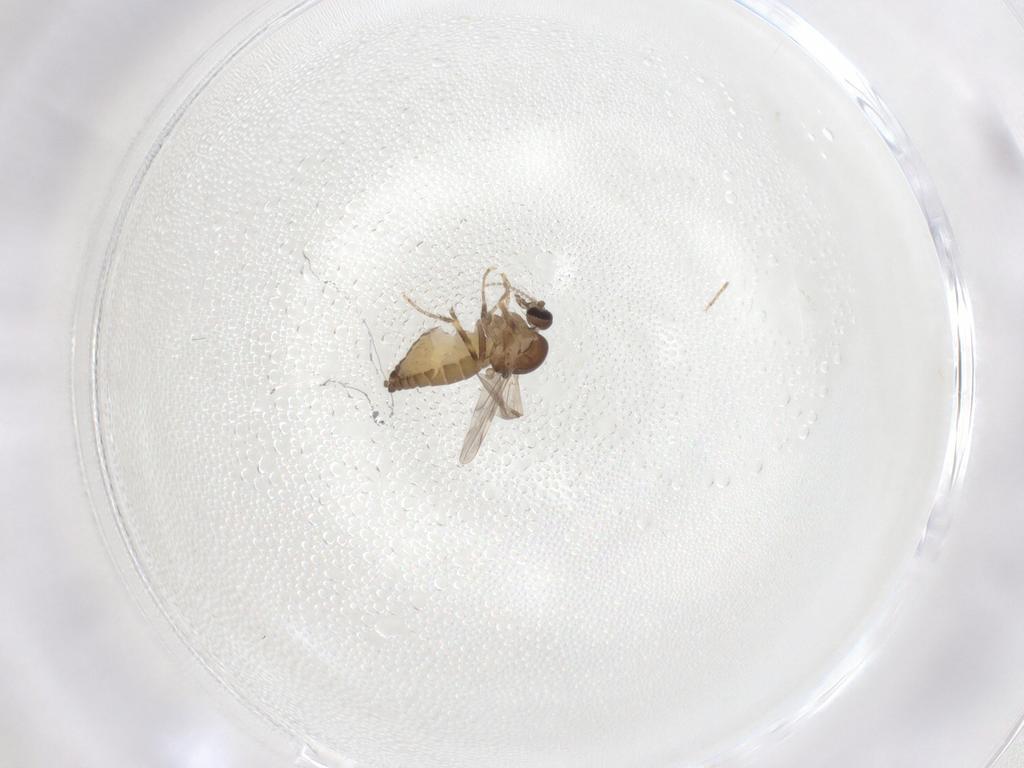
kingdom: Animalia
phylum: Arthropoda
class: Insecta
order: Diptera
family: Ceratopogonidae
